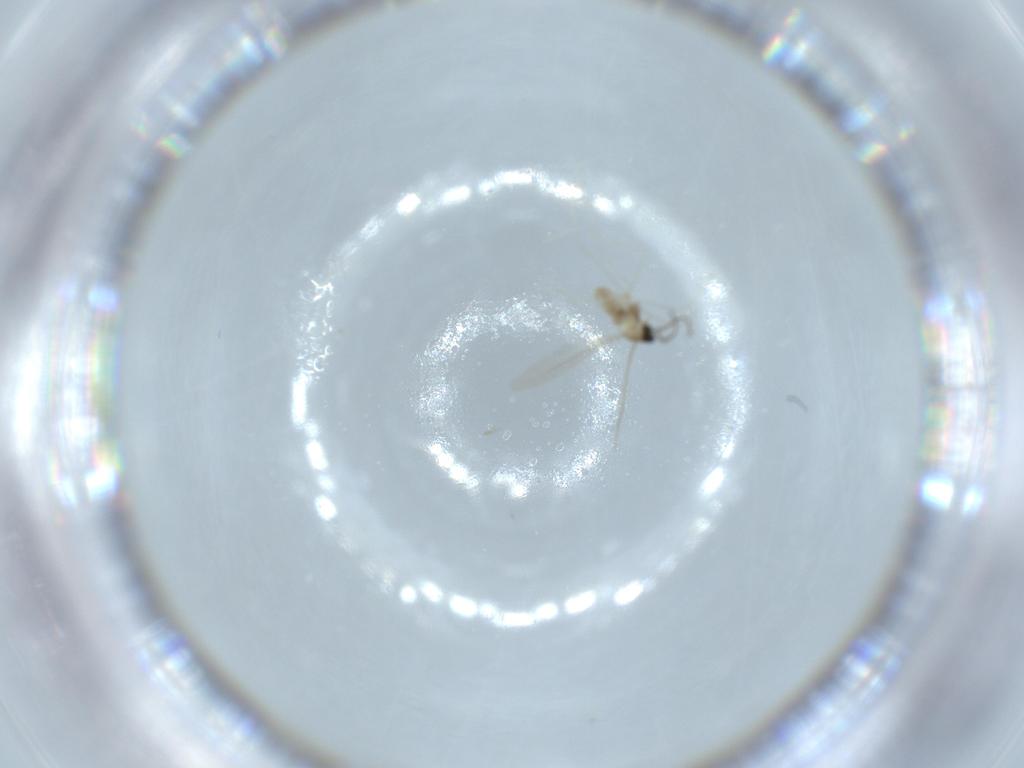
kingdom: Animalia
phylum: Arthropoda
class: Insecta
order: Diptera
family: Cecidomyiidae
